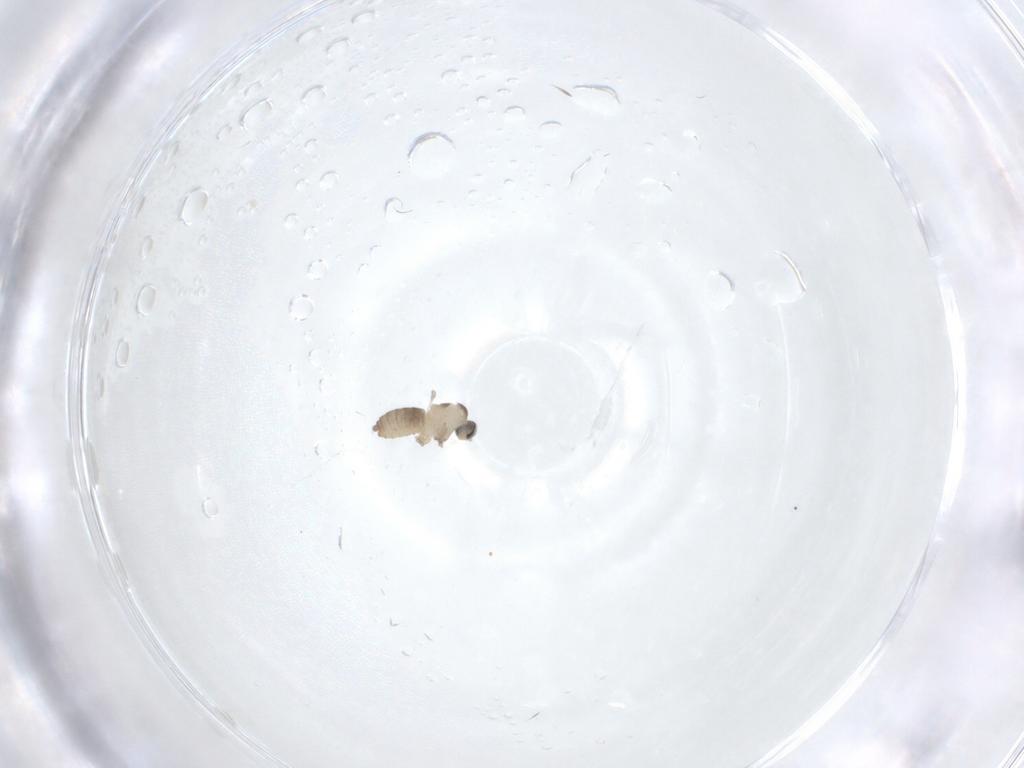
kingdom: Animalia
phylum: Arthropoda
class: Insecta
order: Diptera
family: Cecidomyiidae
